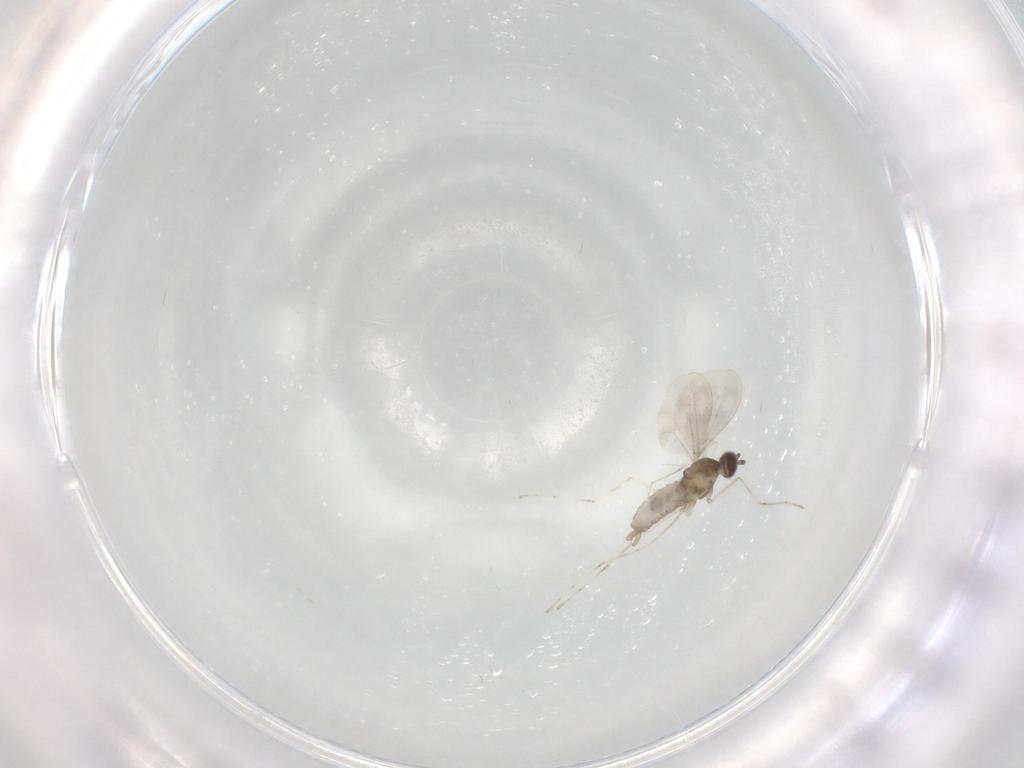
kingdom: Animalia
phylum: Arthropoda
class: Insecta
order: Diptera
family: Cecidomyiidae
